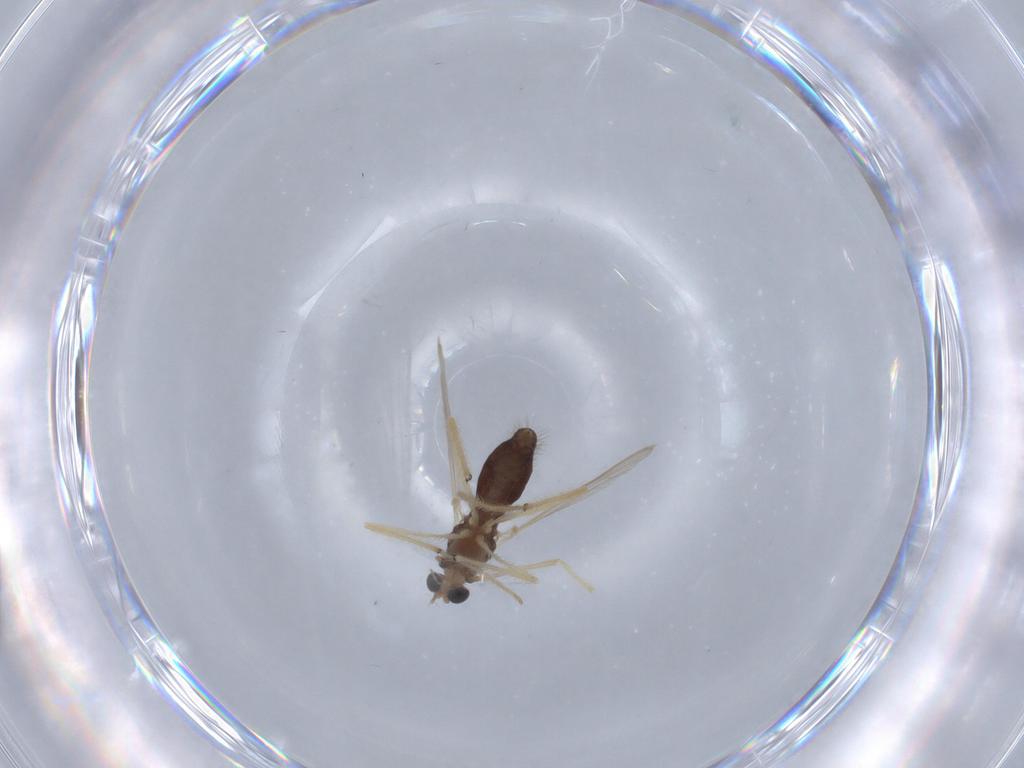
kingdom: Animalia
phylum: Arthropoda
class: Insecta
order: Diptera
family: Chironomidae
